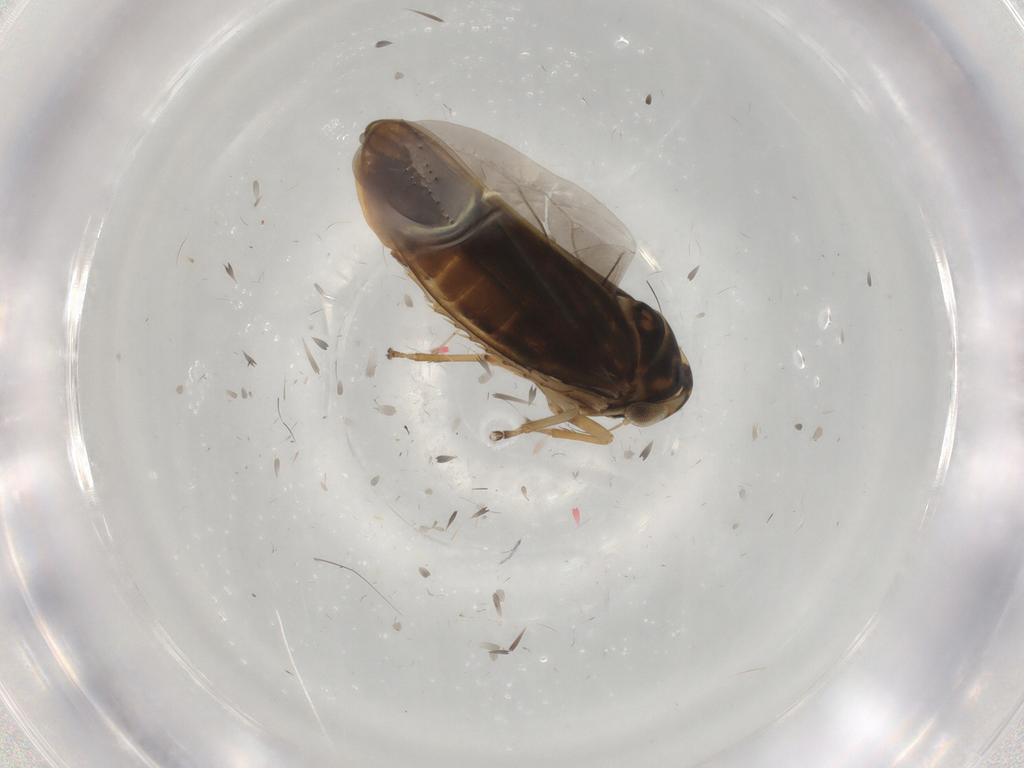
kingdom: Animalia
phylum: Arthropoda
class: Insecta
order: Hemiptera
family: Cicadellidae
